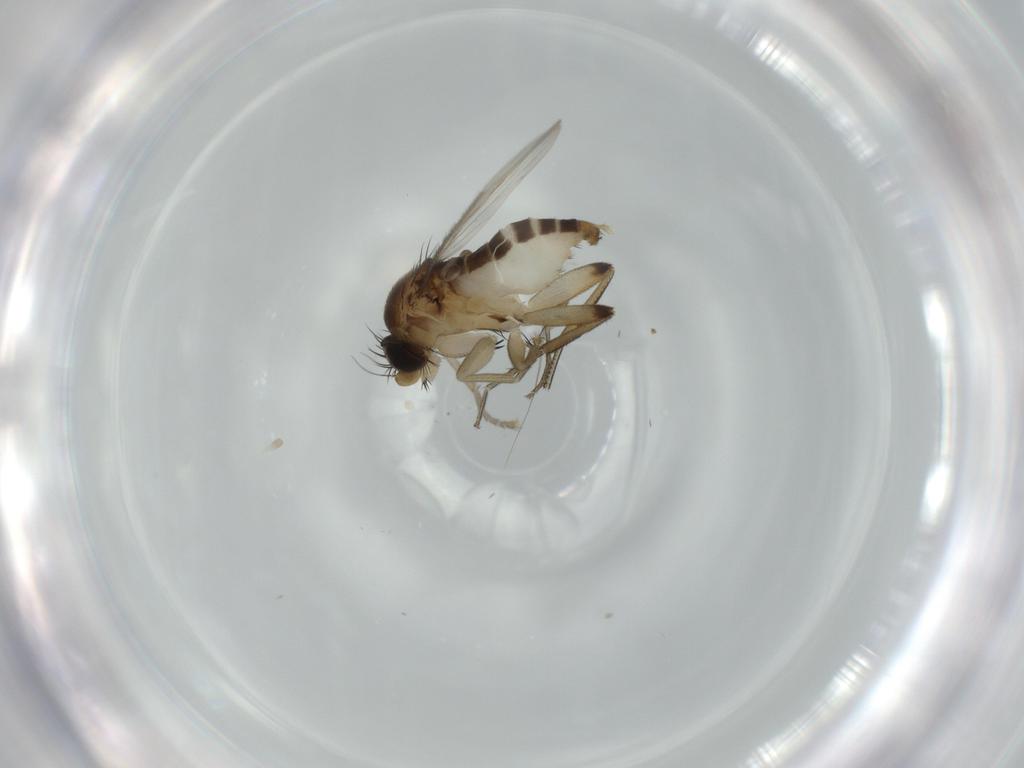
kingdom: Animalia
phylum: Arthropoda
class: Insecta
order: Diptera
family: Phoridae
